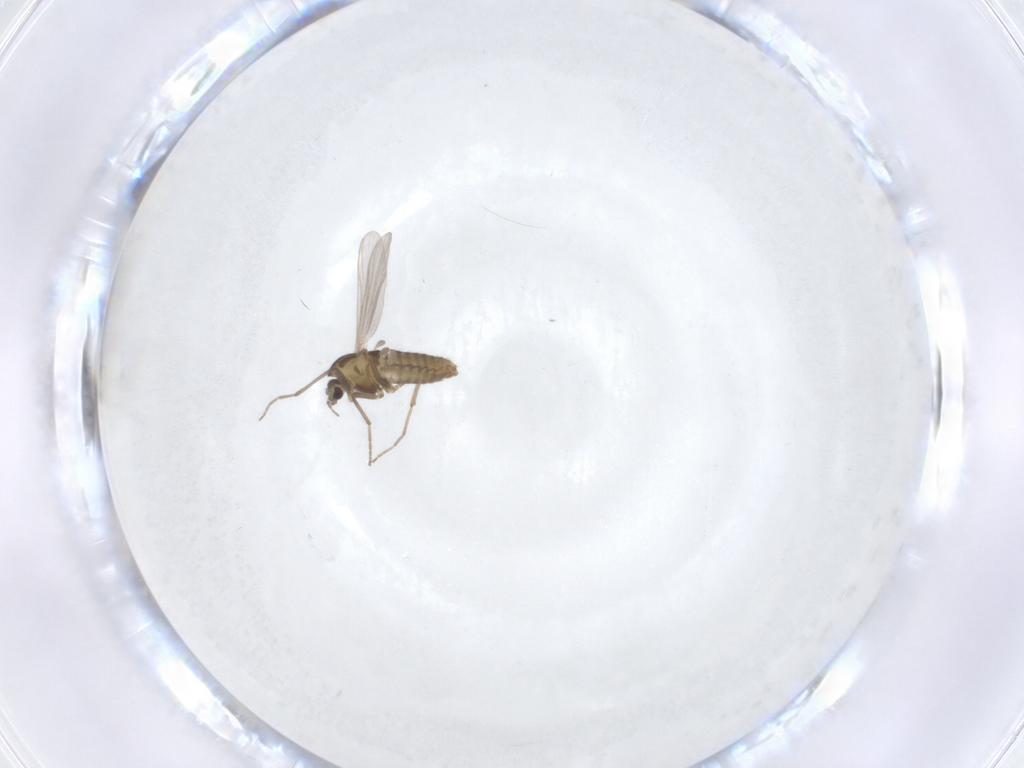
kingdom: Animalia
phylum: Arthropoda
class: Insecta
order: Diptera
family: Chironomidae
